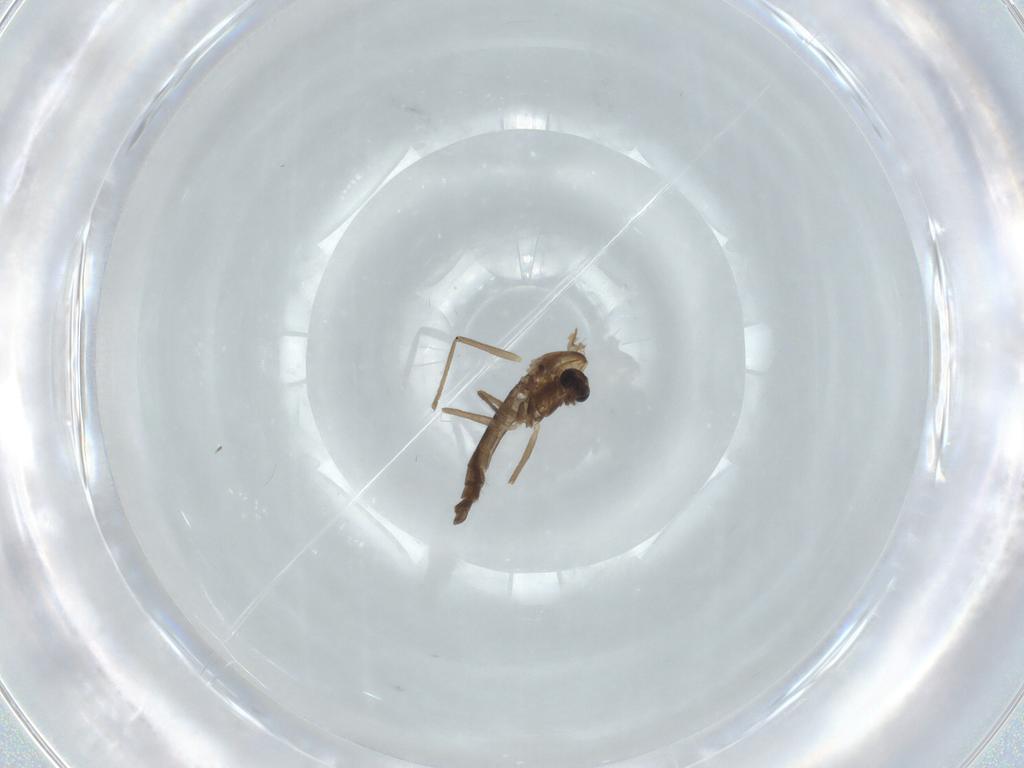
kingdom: Animalia
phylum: Arthropoda
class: Insecta
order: Diptera
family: Chironomidae
